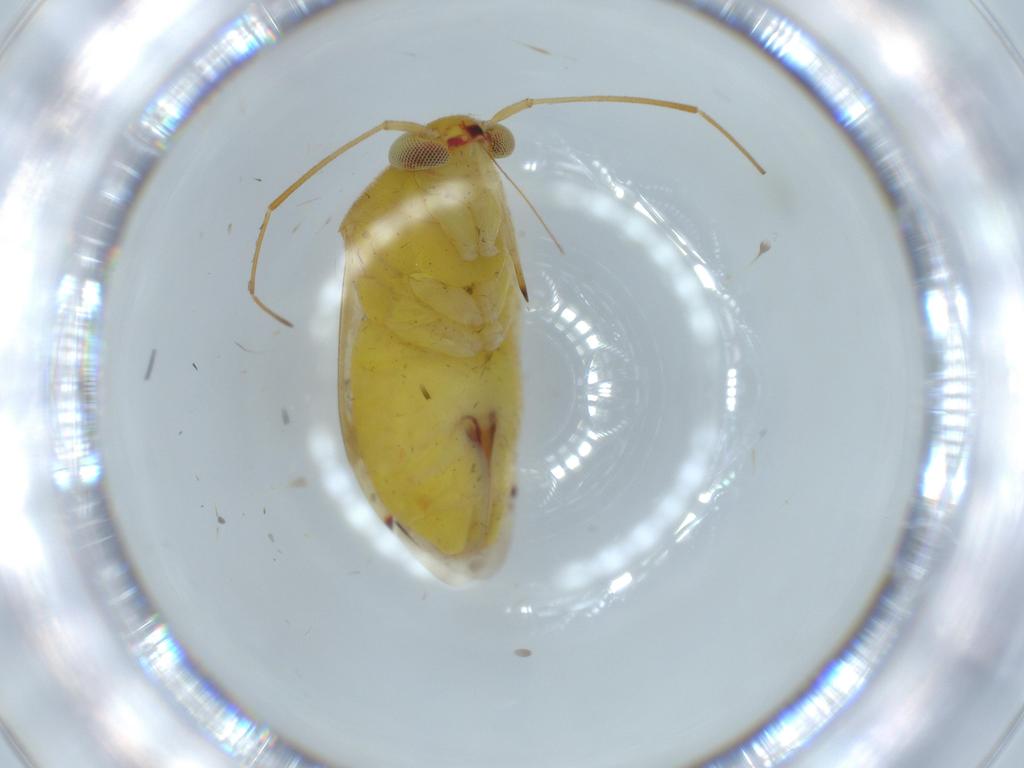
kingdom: Animalia
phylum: Arthropoda
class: Insecta
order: Hemiptera
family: Miridae
